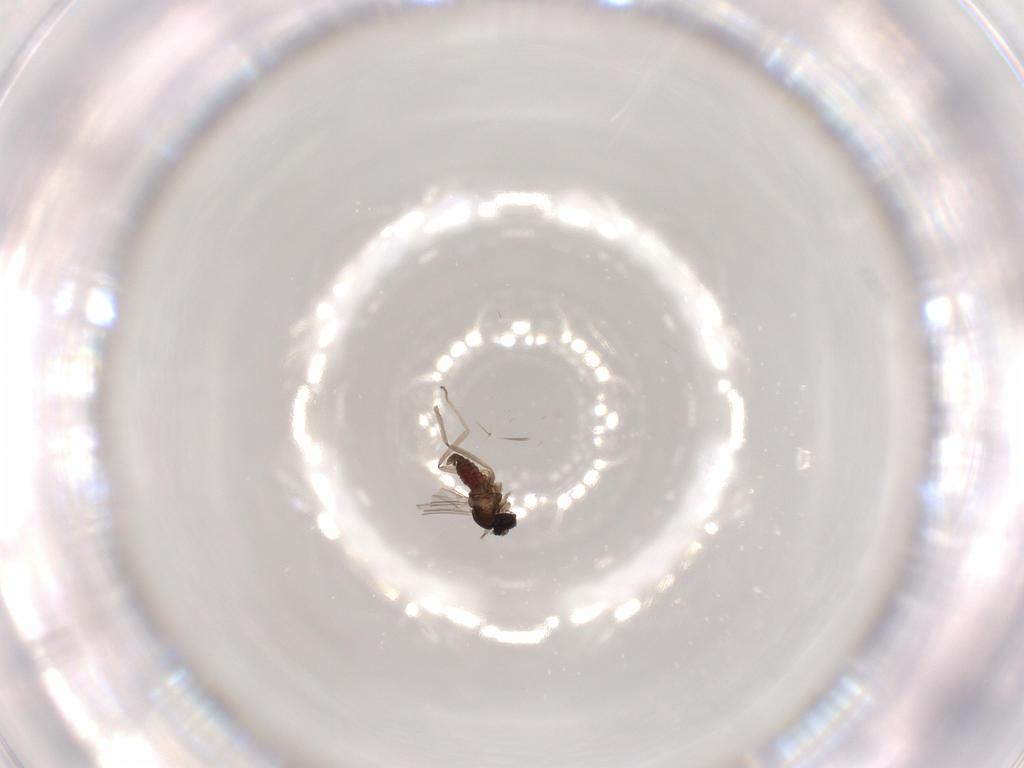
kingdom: Animalia
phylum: Arthropoda
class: Insecta
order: Diptera
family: Cecidomyiidae
